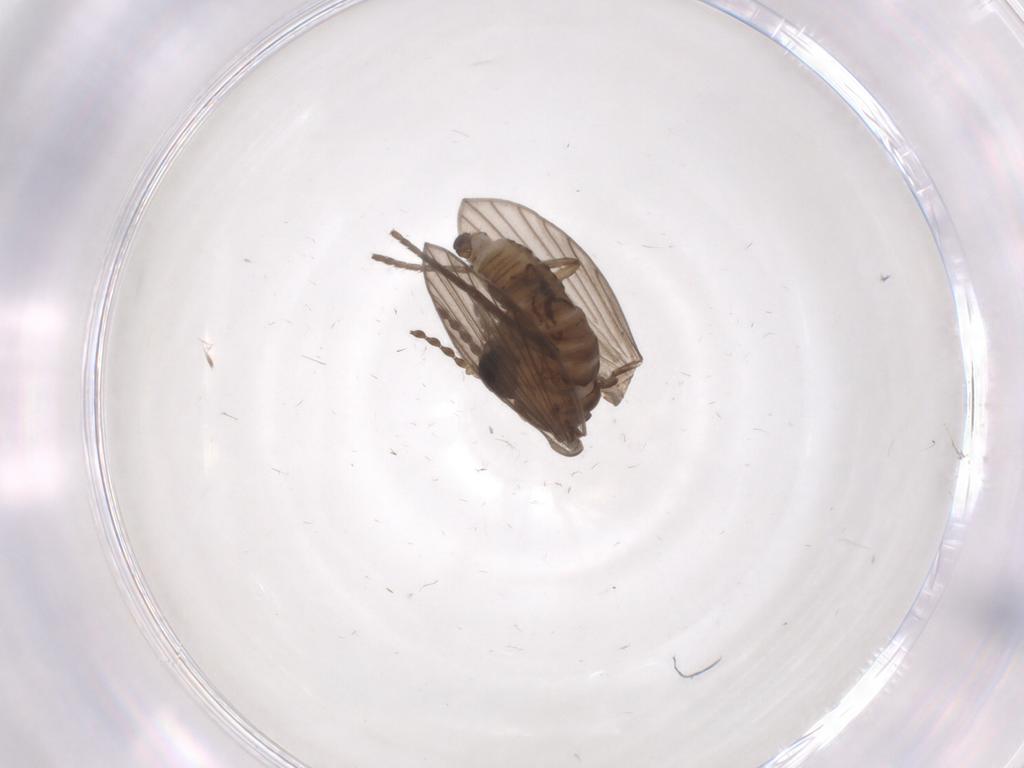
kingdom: Animalia
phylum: Arthropoda
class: Insecta
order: Diptera
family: Psychodidae
